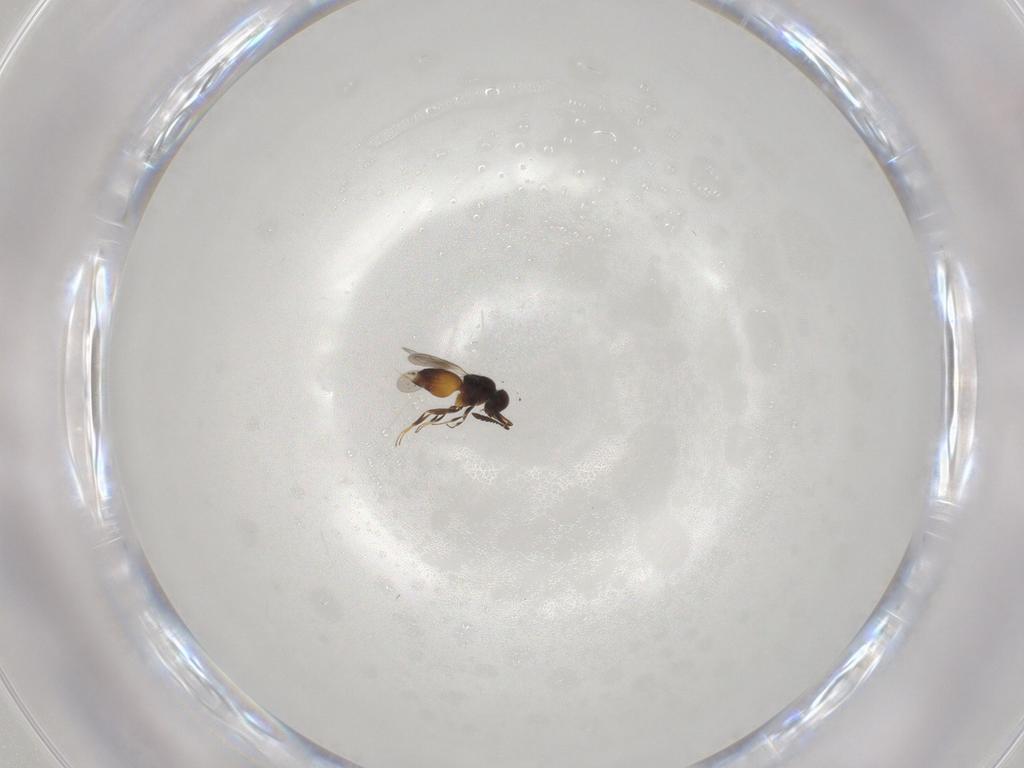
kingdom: Animalia
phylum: Arthropoda
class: Insecta
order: Hymenoptera
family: Ceraphronidae
